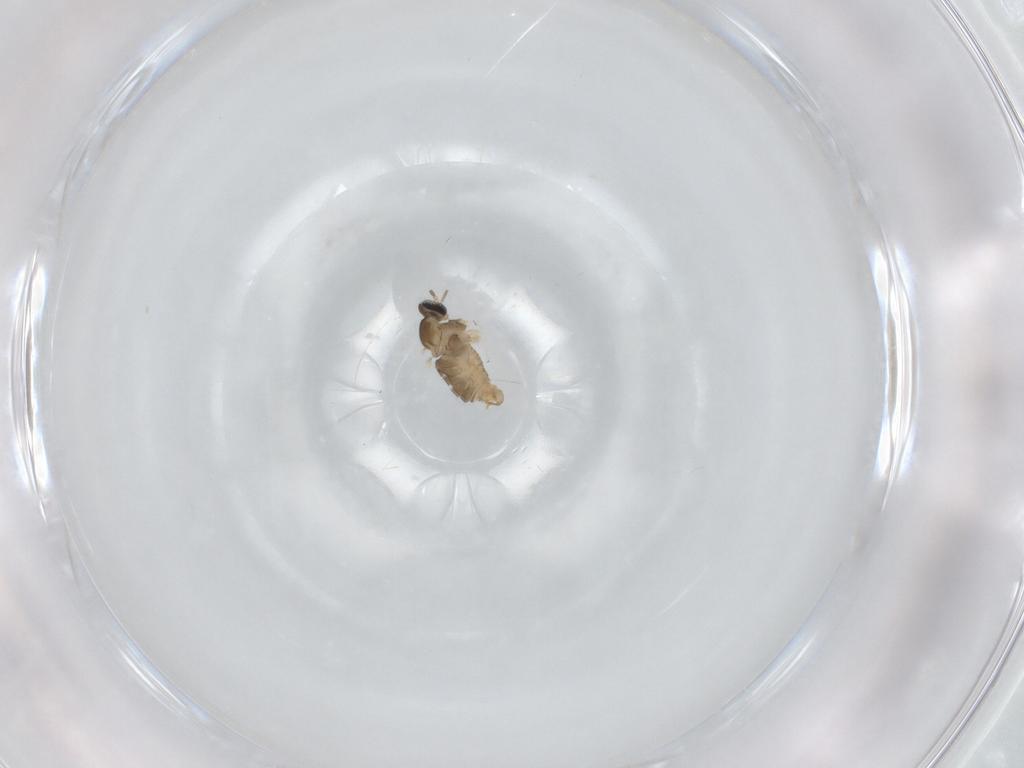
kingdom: Animalia
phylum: Arthropoda
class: Insecta
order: Diptera
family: Cecidomyiidae
